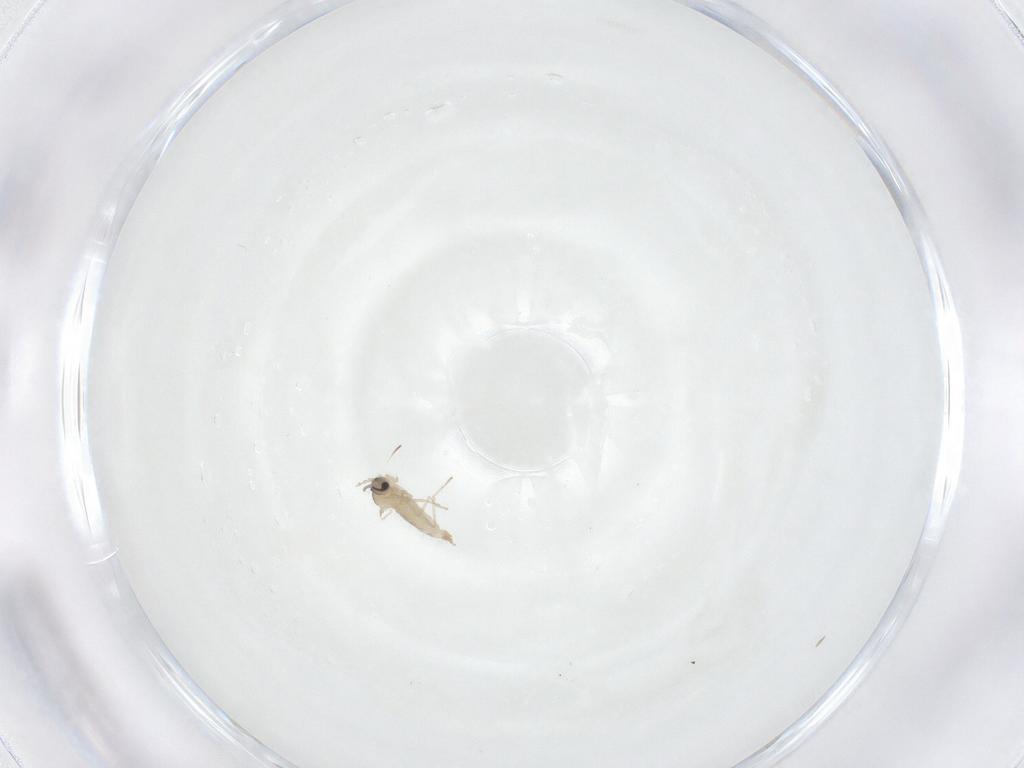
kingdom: Animalia
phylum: Arthropoda
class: Insecta
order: Diptera
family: Cecidomyiidae
